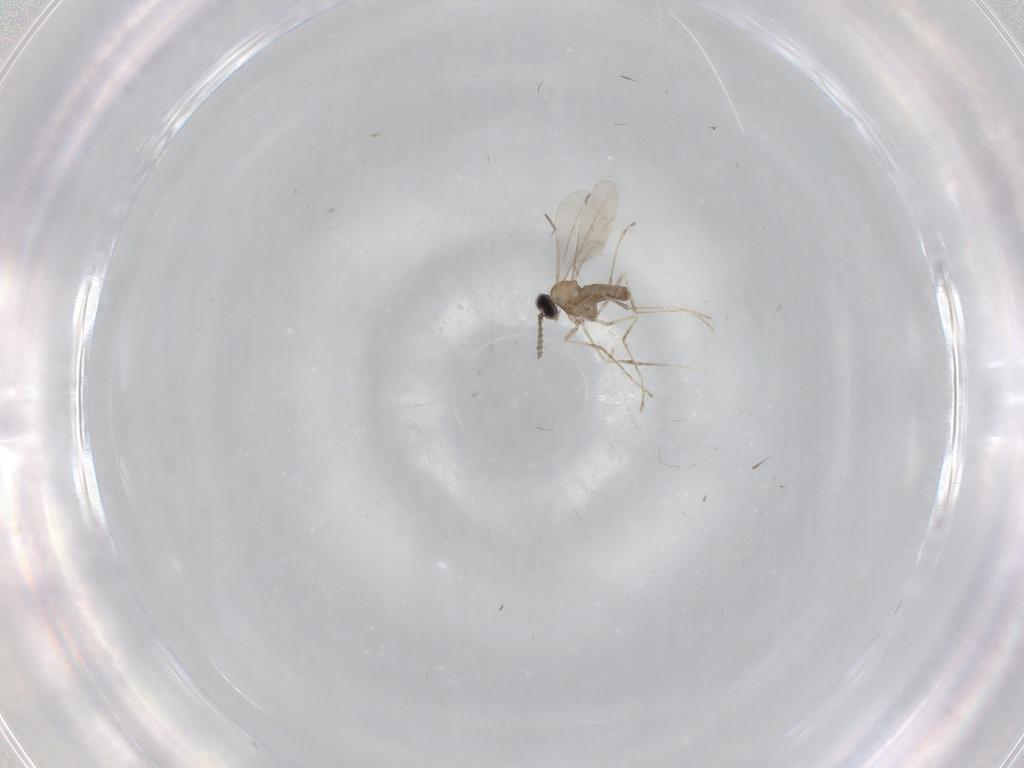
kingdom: Animalia
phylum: Arthropoda
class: Insecta
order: Diptera
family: Cecidomyiidae
